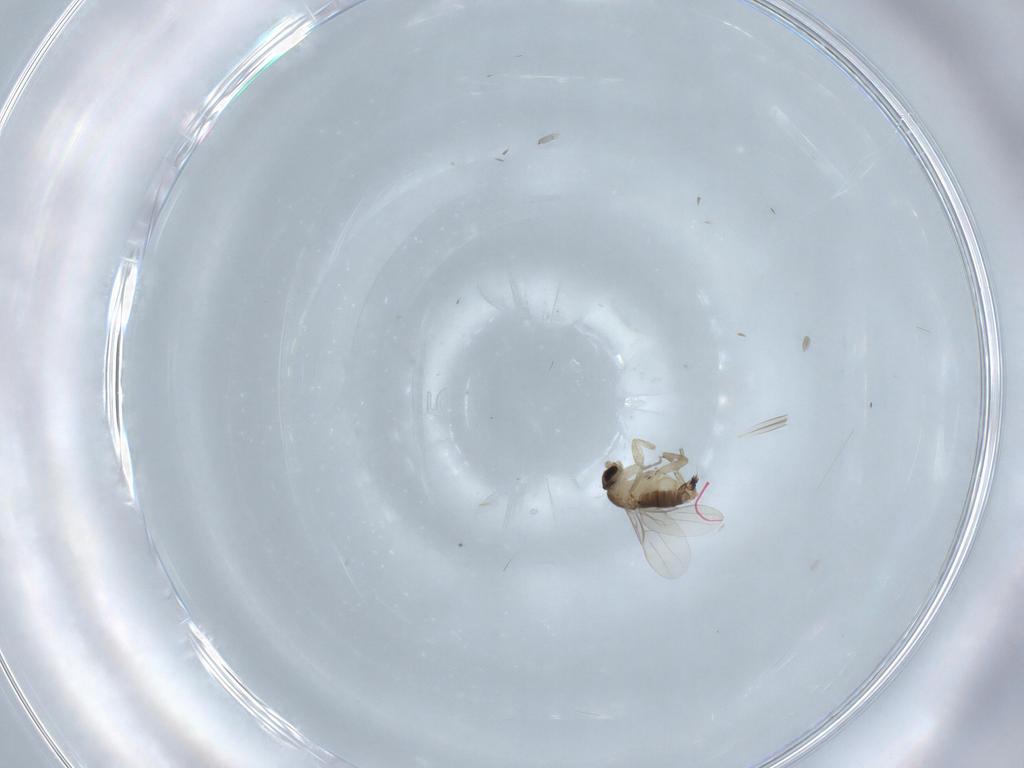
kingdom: Animalia
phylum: Arthropoda
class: Insecta
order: Diptera
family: Phoridae
